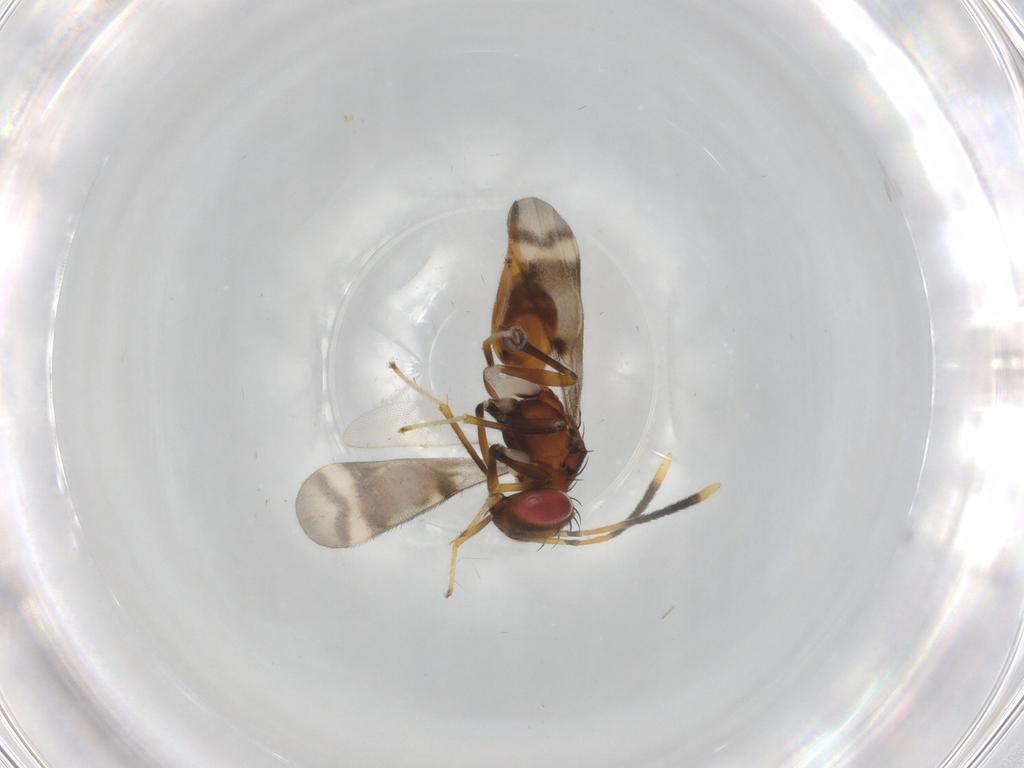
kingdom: Animalia
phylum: Arthropoda
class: Insecta
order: Hymenoptera
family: Diparidae
